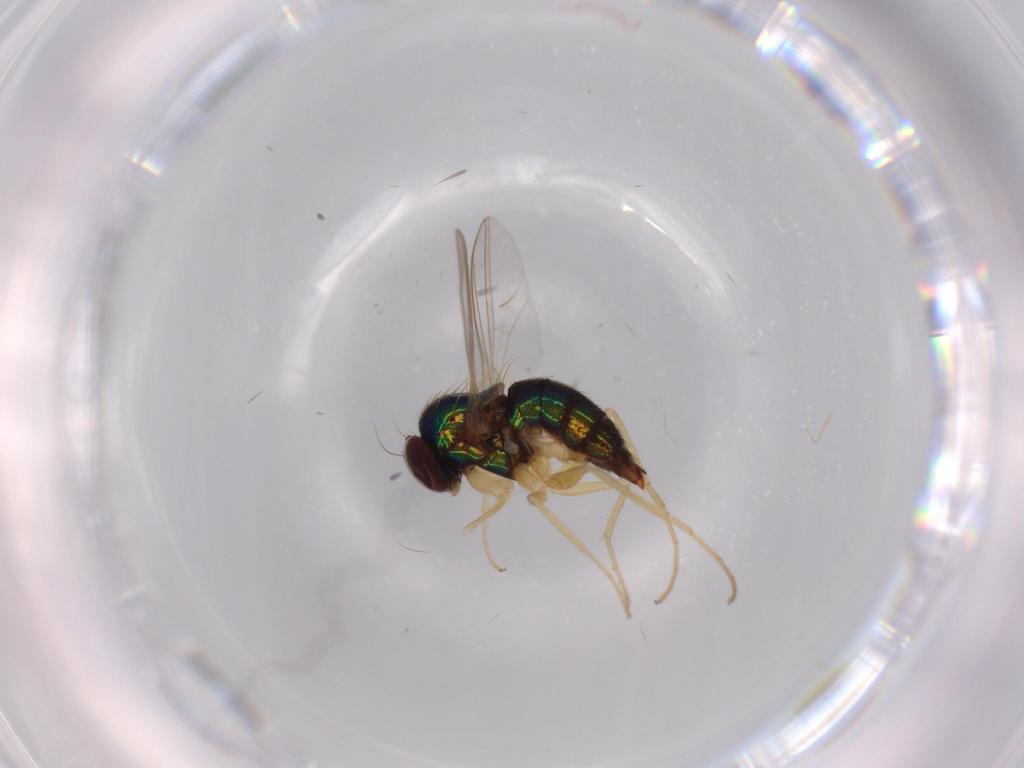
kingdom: Animalia
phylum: Arthropoda
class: Insecta
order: Diptera
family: Dolichopodidae
